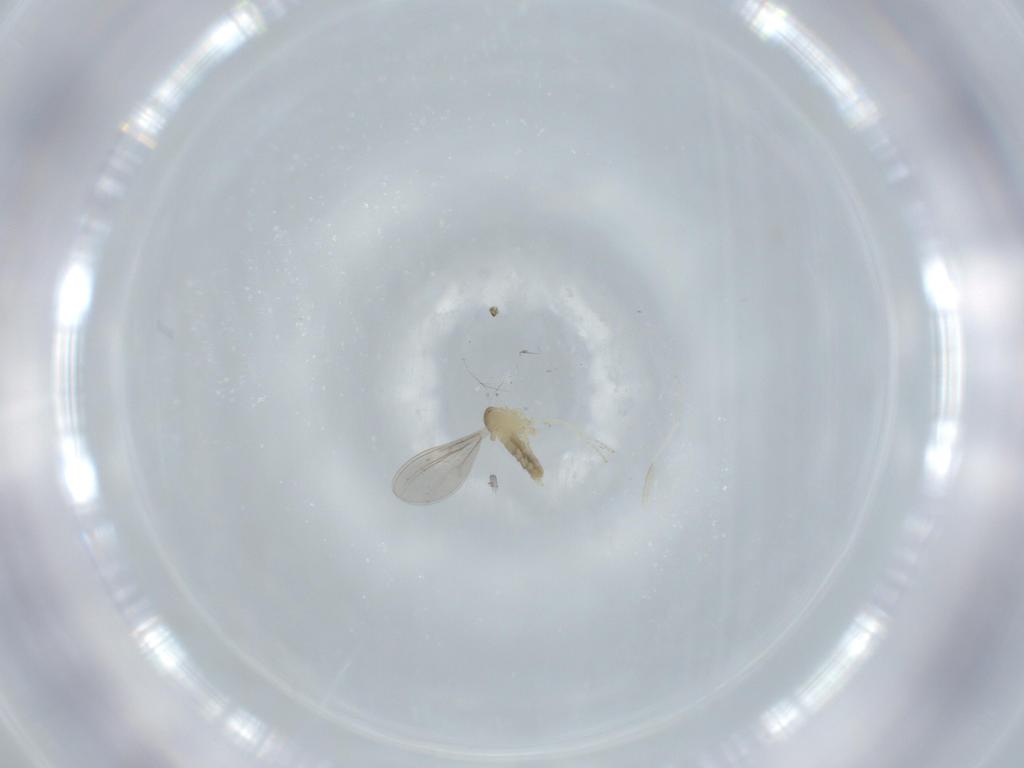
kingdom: Animalia
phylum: Arthropoda
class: Insecta
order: Diptera
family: Cecidomyiidae
